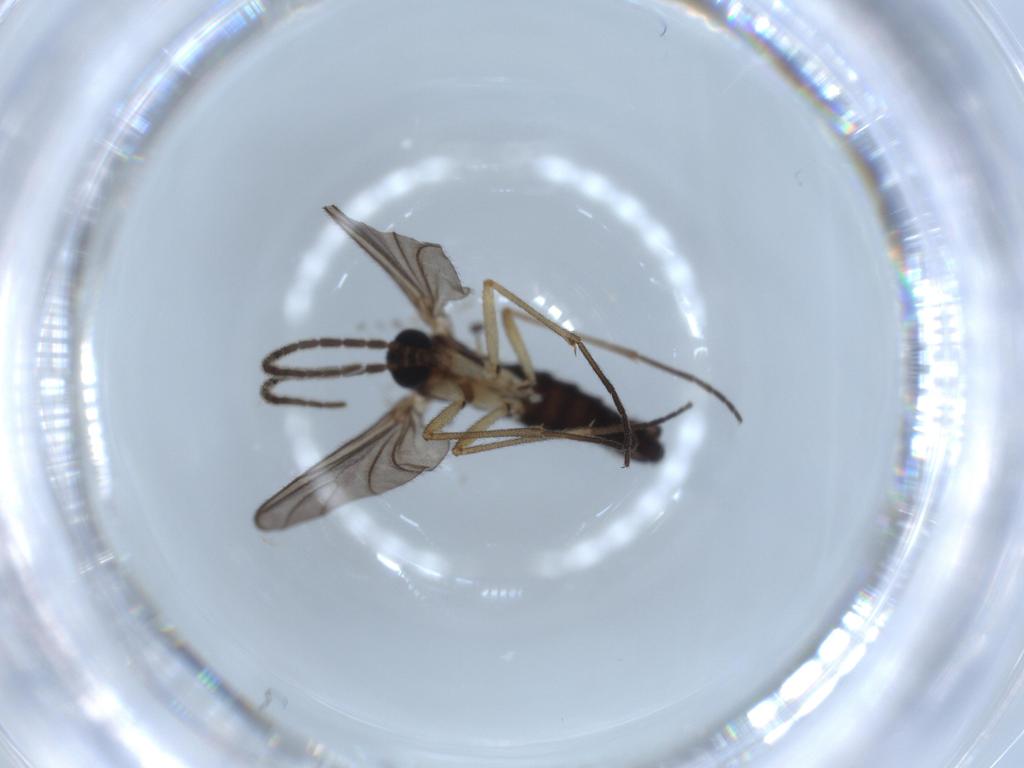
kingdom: Animalia
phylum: Arthropoda
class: Insecta
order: Diptera
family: Sciaridae
